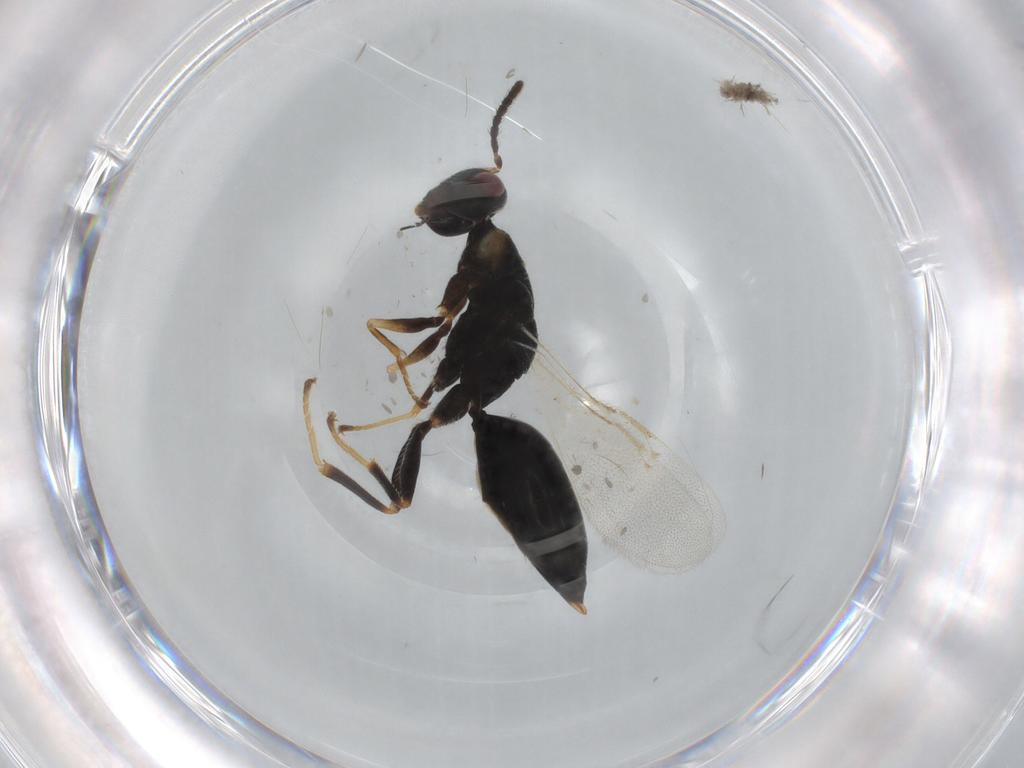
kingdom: Animalia
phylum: Arthropoda
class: Insecta
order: Hymenoptera
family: Eurytomidae
